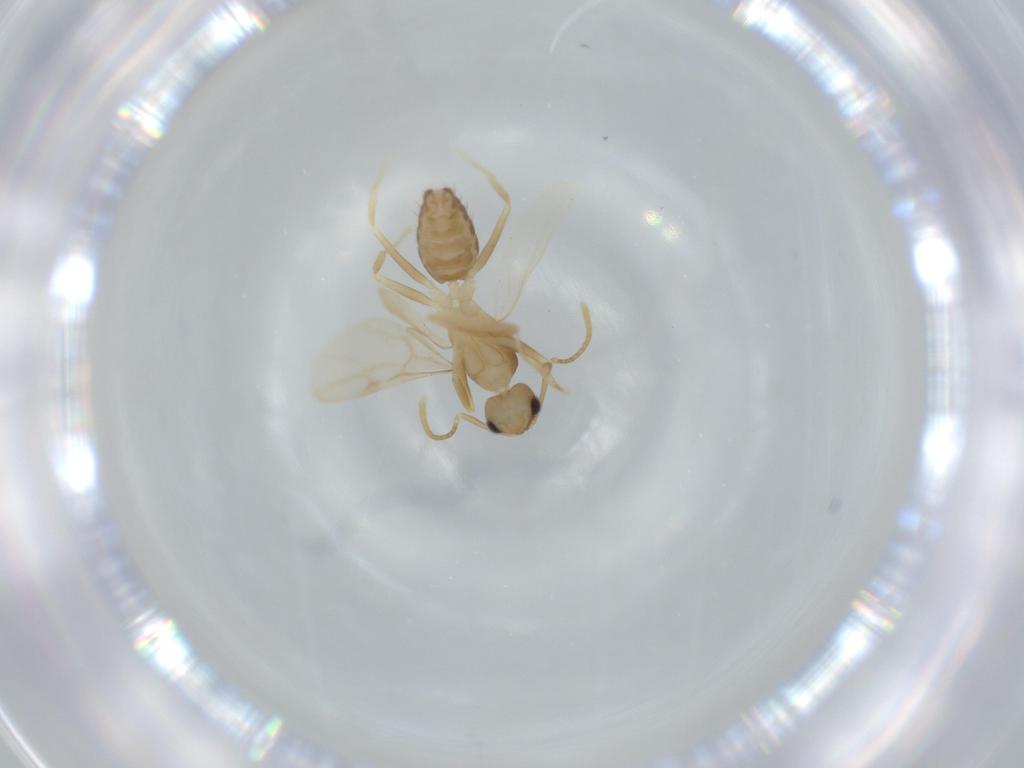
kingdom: Animalia
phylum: Arthropoda
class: Insecta
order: Hymenoptera
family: Formicidae
